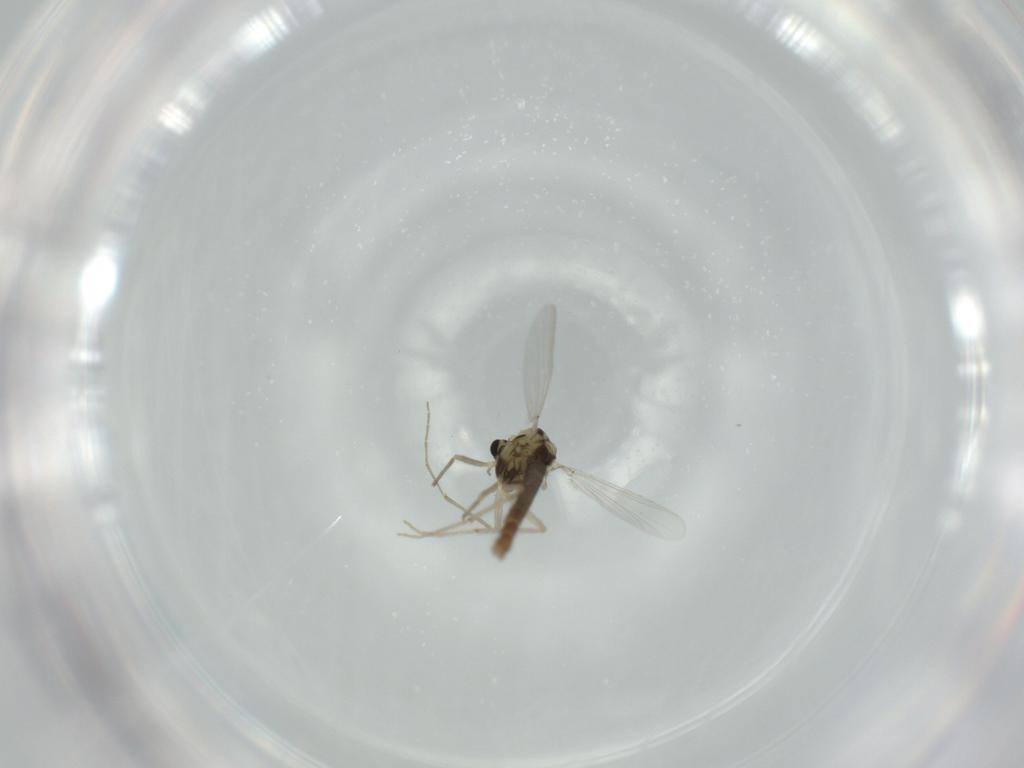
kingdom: Animalia
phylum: Arthropoda
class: Insecta
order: Diptera
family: Chironomidae
